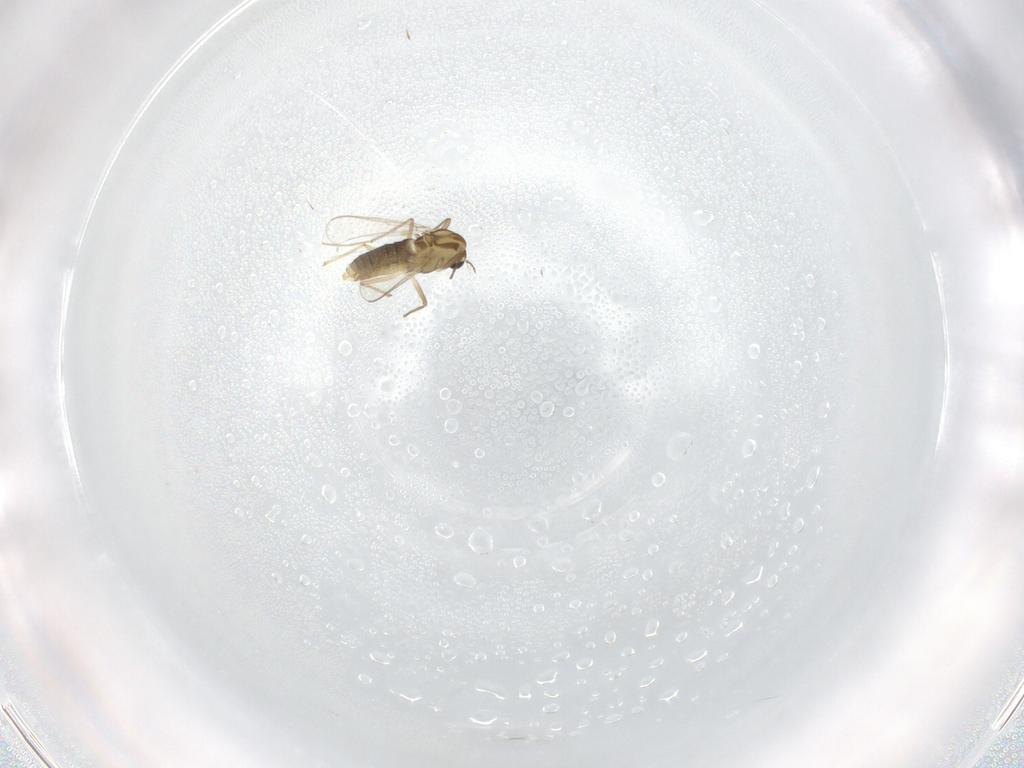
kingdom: Animalia
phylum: Arthropoda
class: Insecta
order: Diptera
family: Chironomidae
